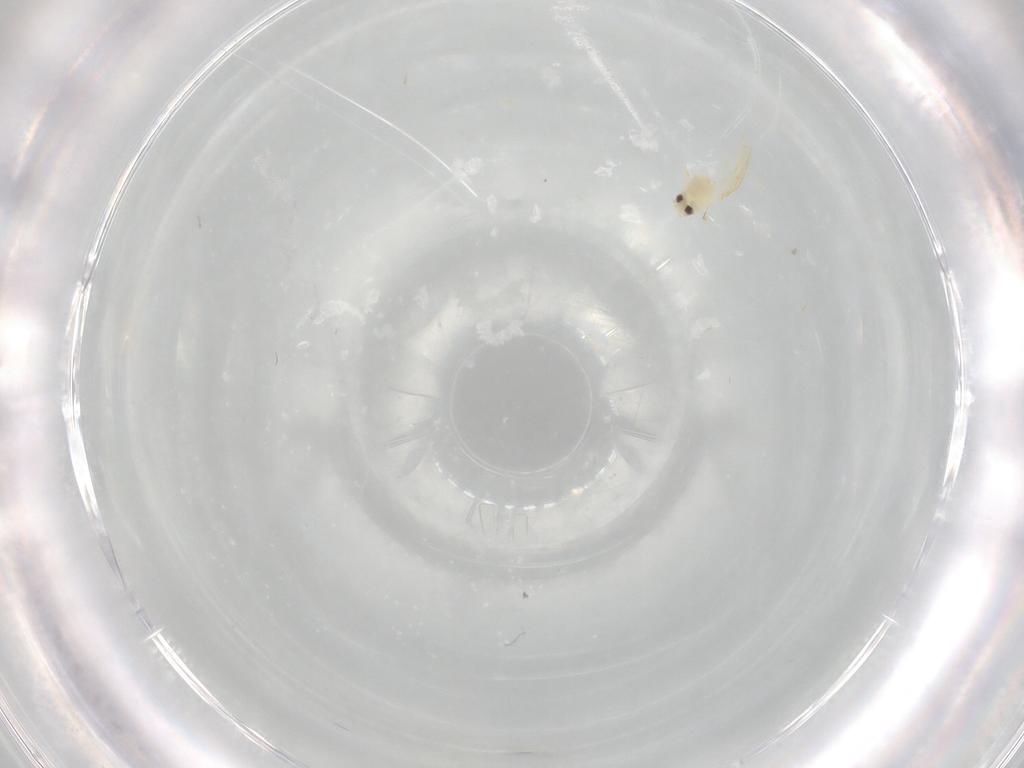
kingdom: Animalia
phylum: Arthropoda
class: Insecta
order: Hemiptera
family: Aleyrodidae
